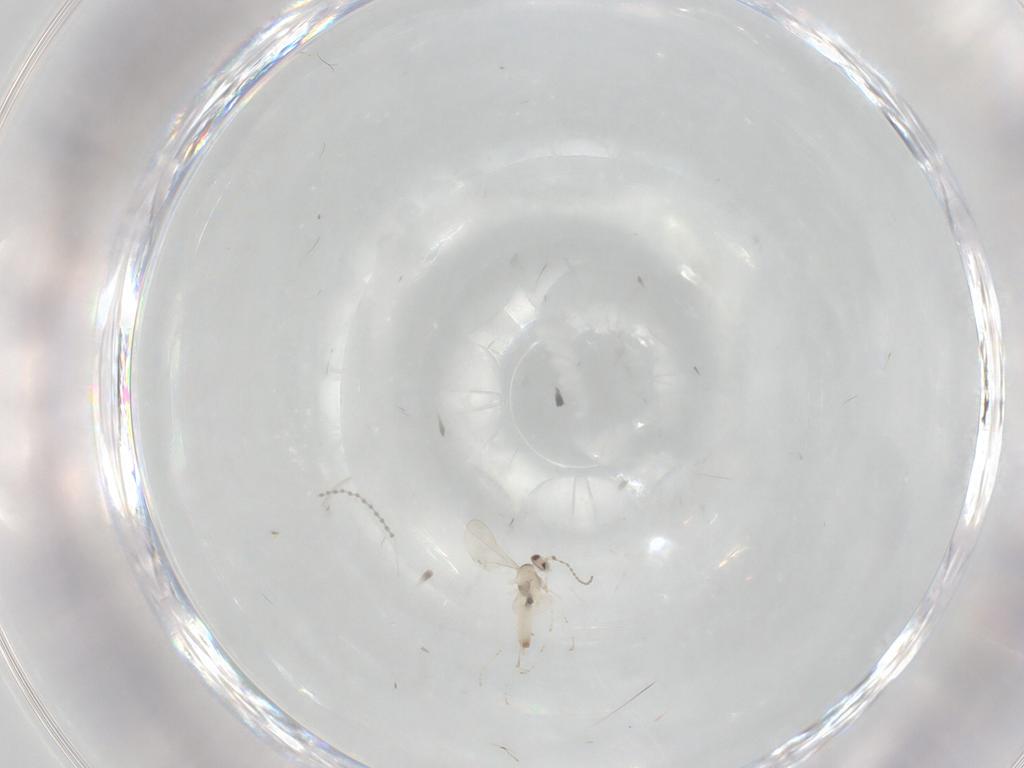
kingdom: Animalia
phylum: Arthropoda
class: Insecta
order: Diptera
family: Cecidomyiidae
